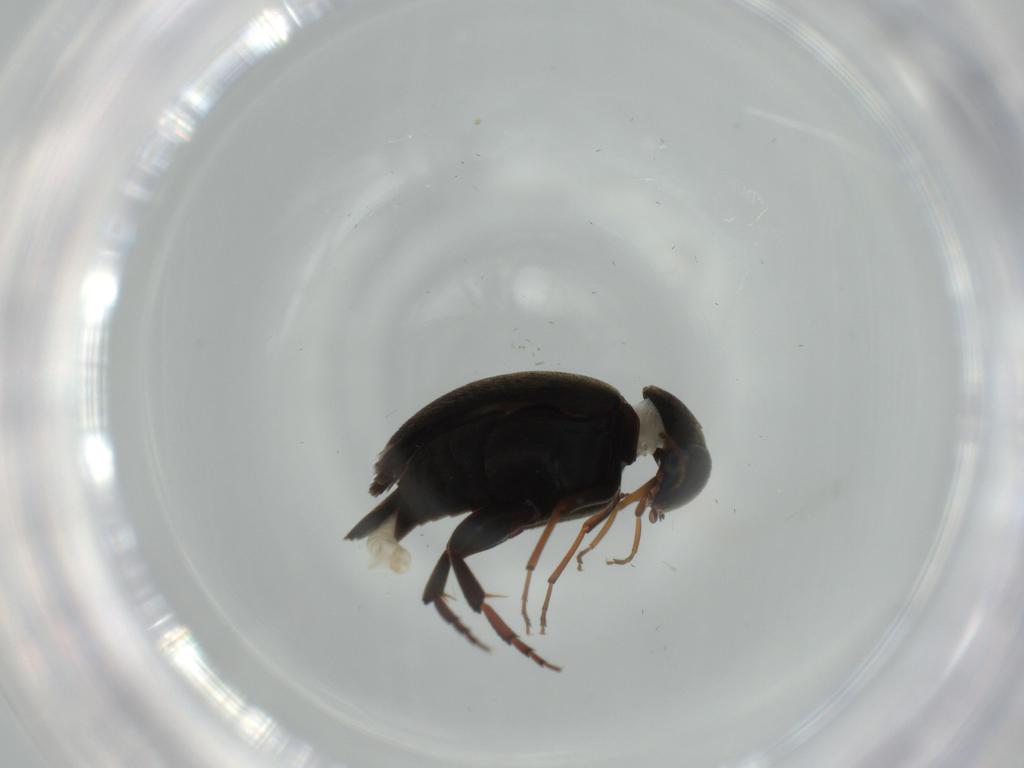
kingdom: Animalia
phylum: Arthropoda
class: Insecta
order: Coleoptera
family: Mordellidae
